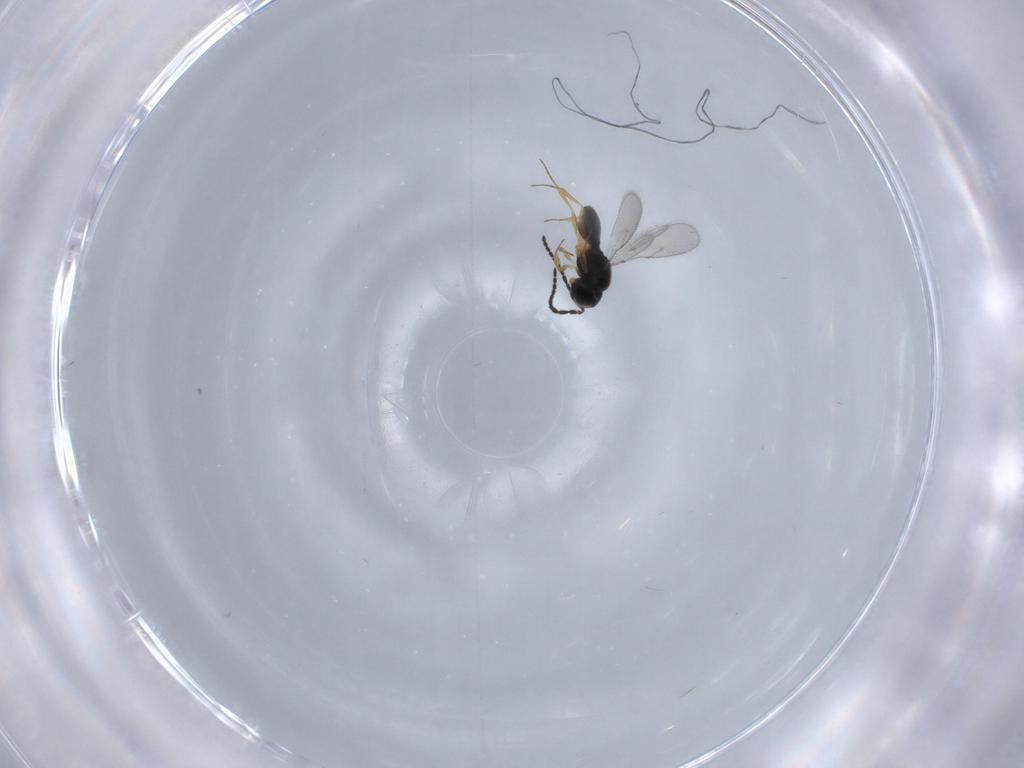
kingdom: Animalia
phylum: Arthropoda
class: Insecta
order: Hymenoptera
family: Scelionidae
